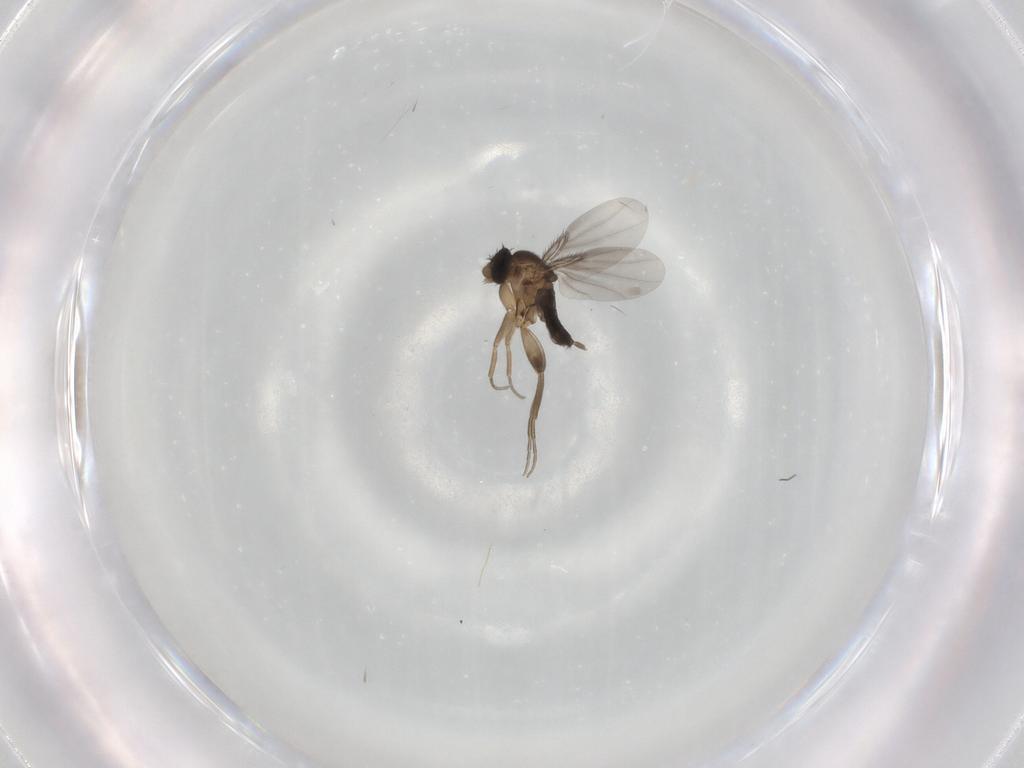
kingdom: Animalia
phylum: Arthropoda
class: Insecta
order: Diptera
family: Phoridae
